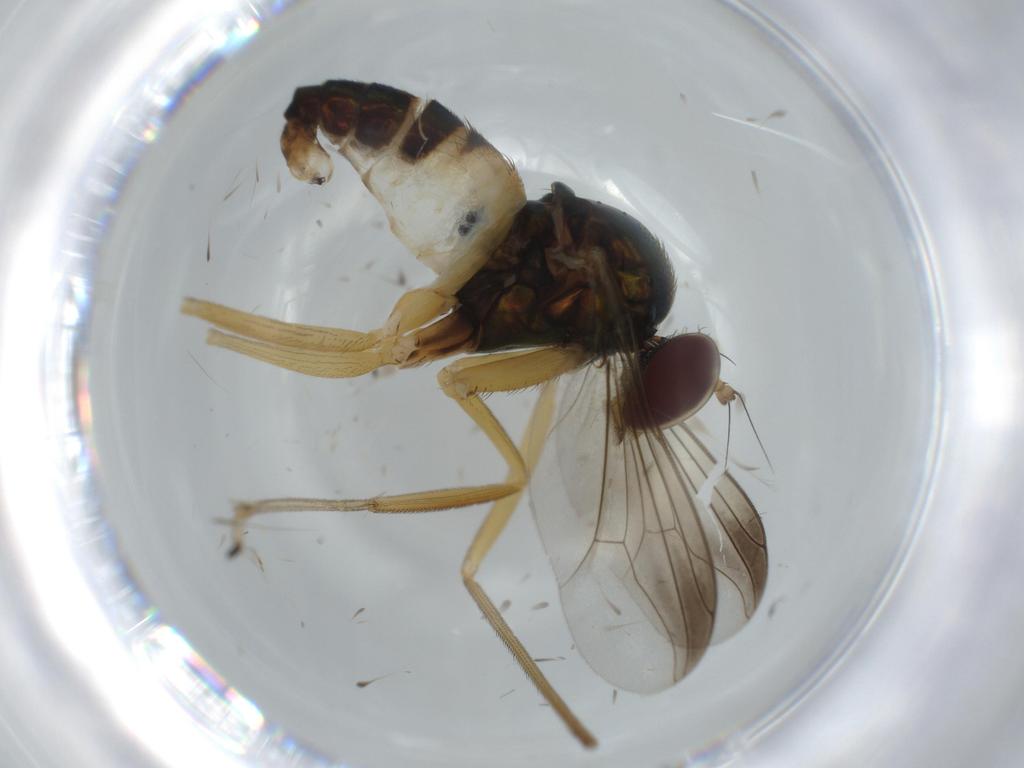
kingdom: Animalia
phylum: Arthropoda
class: Insecta
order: Diptera
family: Dolichopodidae
